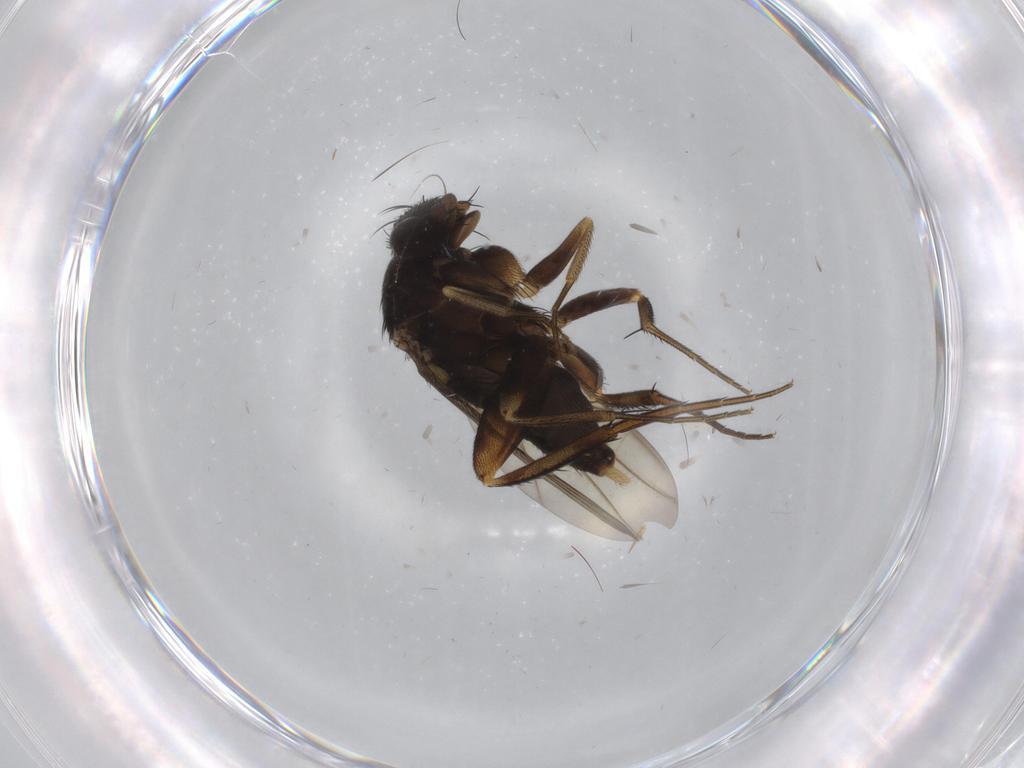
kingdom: Animalia
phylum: Arthropoda
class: Insecta
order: Diptera
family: Phoridae
